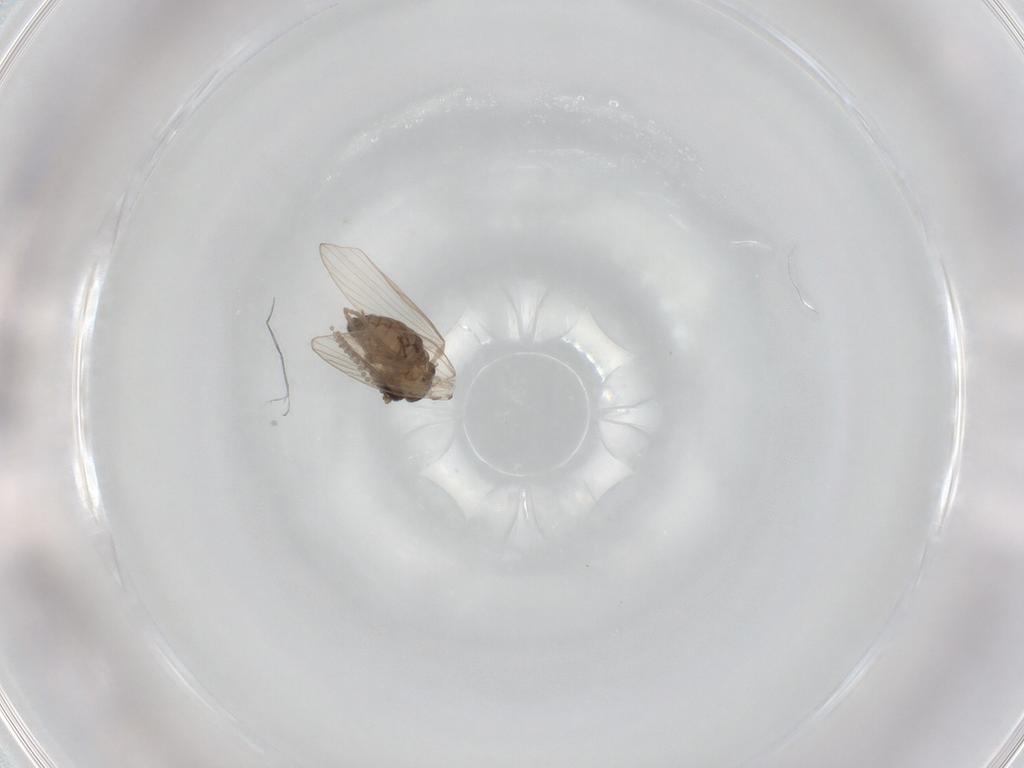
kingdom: Animalia
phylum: Arthropoda
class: Insecta
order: Diptera
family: Psychodidae
